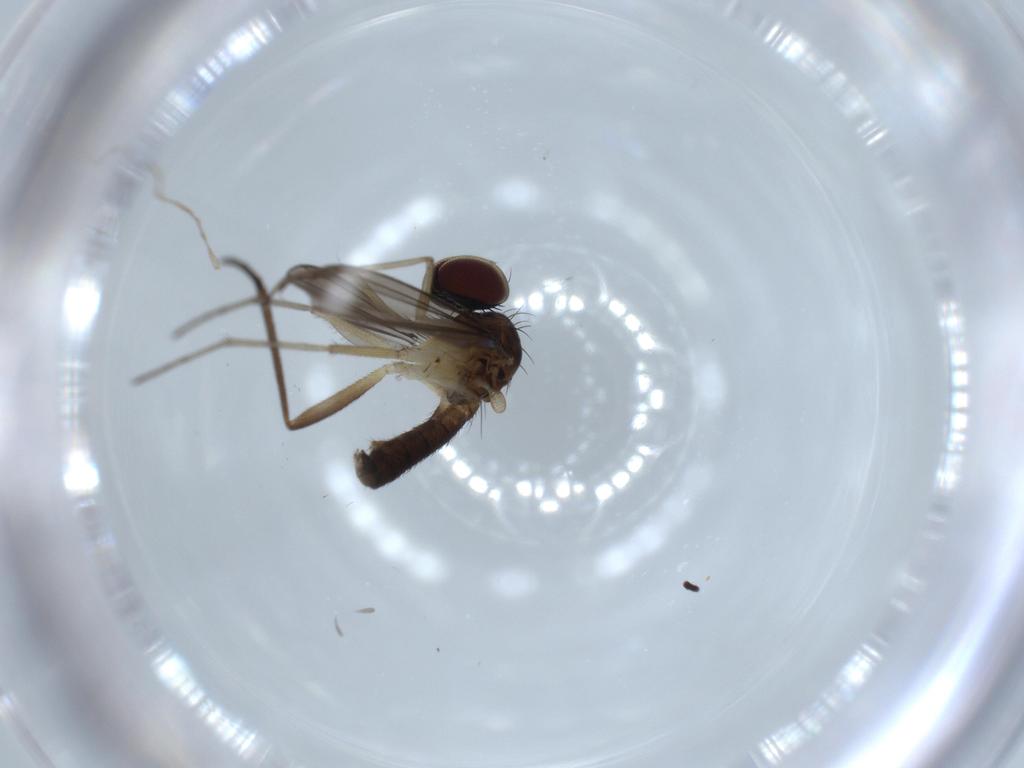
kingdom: Animalia
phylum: Arthropoda
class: Insecta
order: Diptera
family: Dolichopodidae
